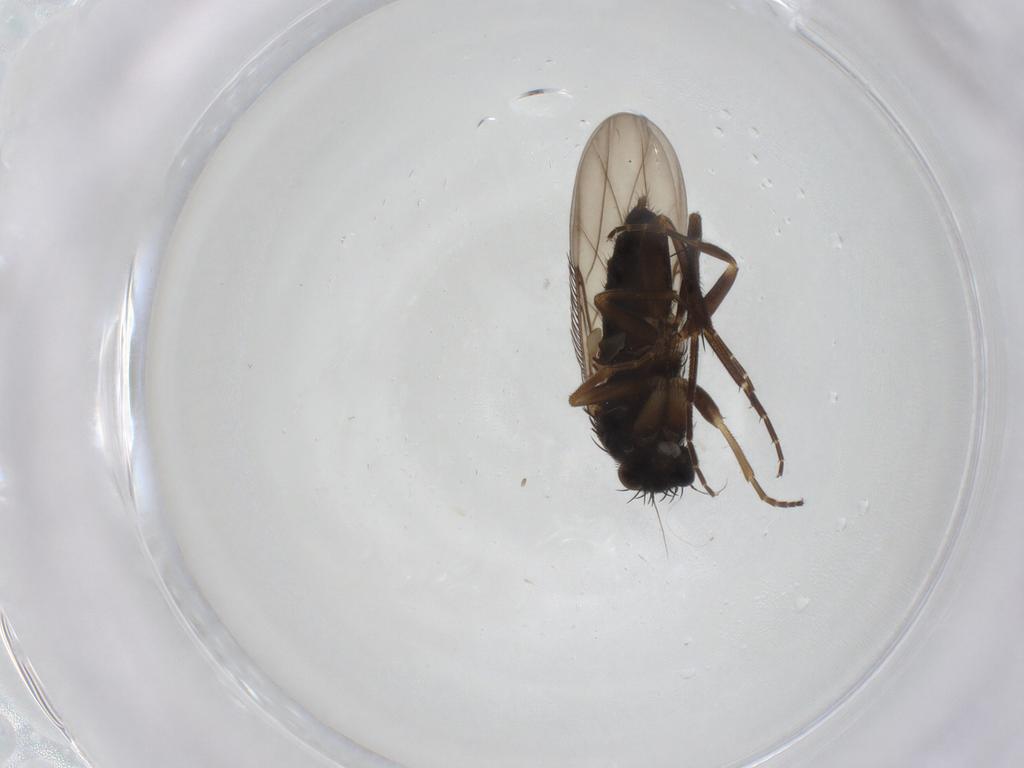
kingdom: Animalia
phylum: Arthropoda
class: Insecta
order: Diptera
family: Phoridae
